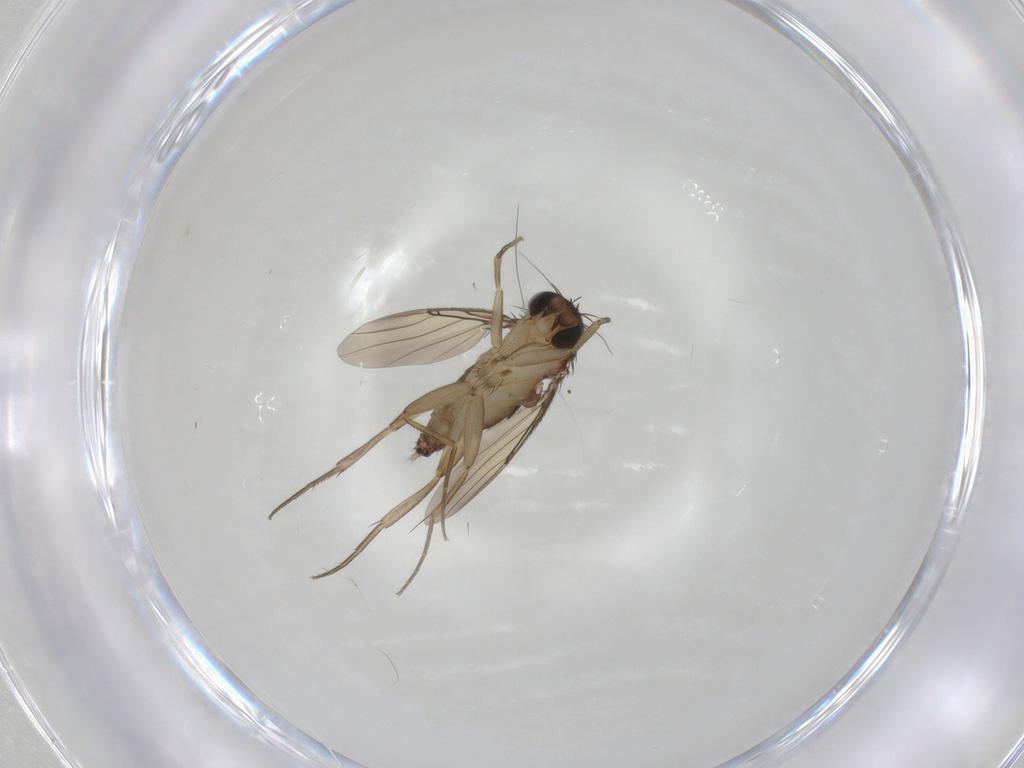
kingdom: Animalia
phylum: Arthropoda
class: Insecta
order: Diptera
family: Phoridae
